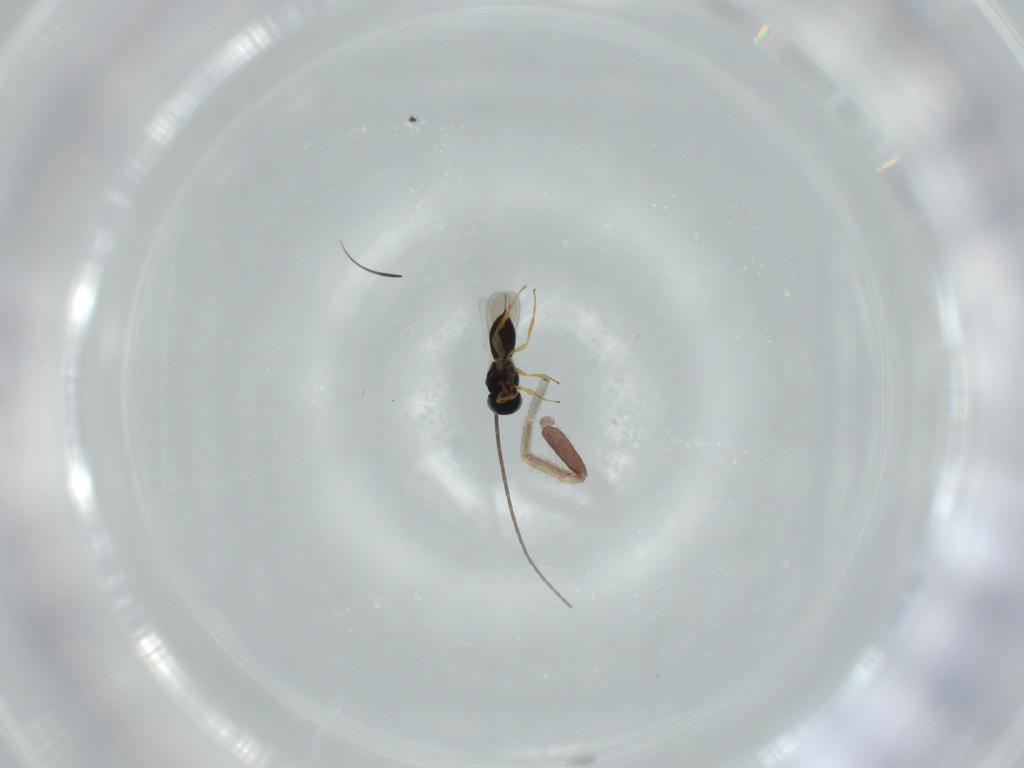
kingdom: Animalia
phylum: Arthropoda
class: Insecta
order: Hymenoptera
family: Scelionidae
